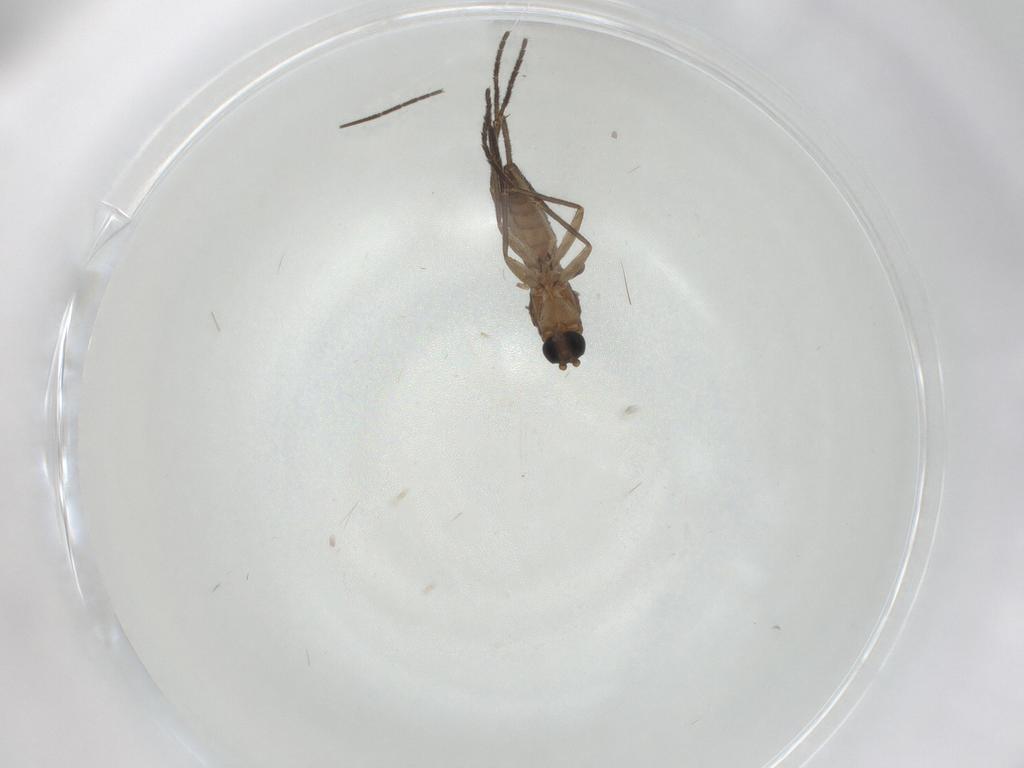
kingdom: Animalia
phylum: Arthropoda
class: Insecta
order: Diptera
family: Sciaridae
